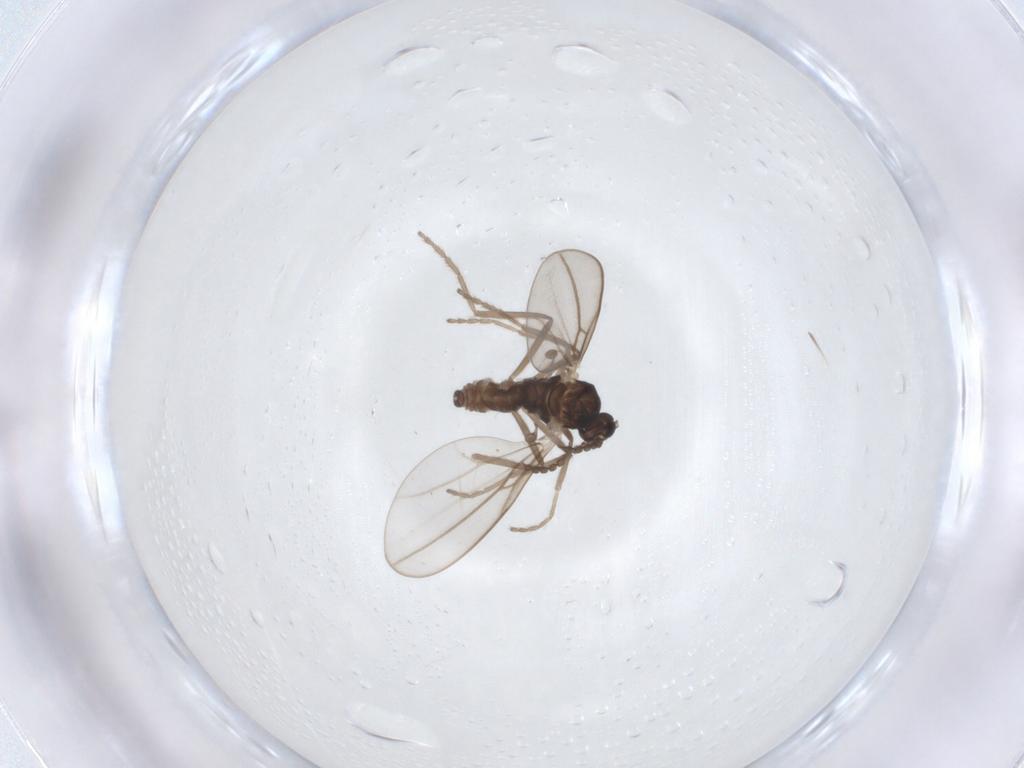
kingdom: Animalia
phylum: Arthropoda
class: Insecta
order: Diptera
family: Cecidomyiidae
